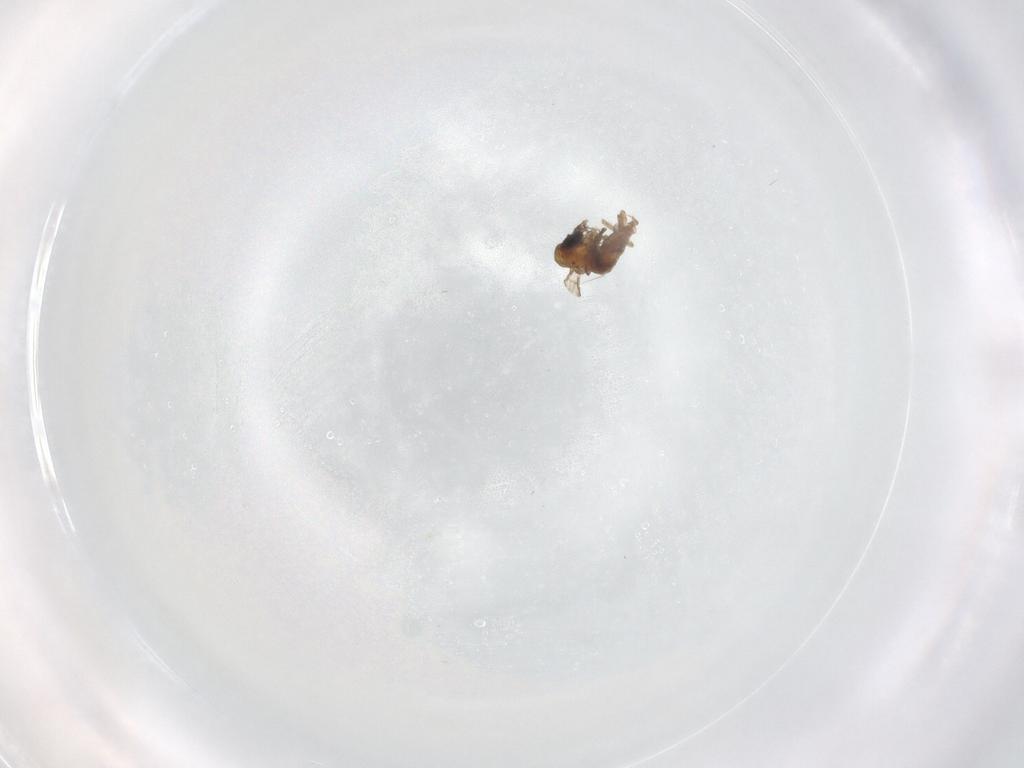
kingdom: Animalia
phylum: Arthropoda
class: Insecta
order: Diptera
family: Psychodidae
